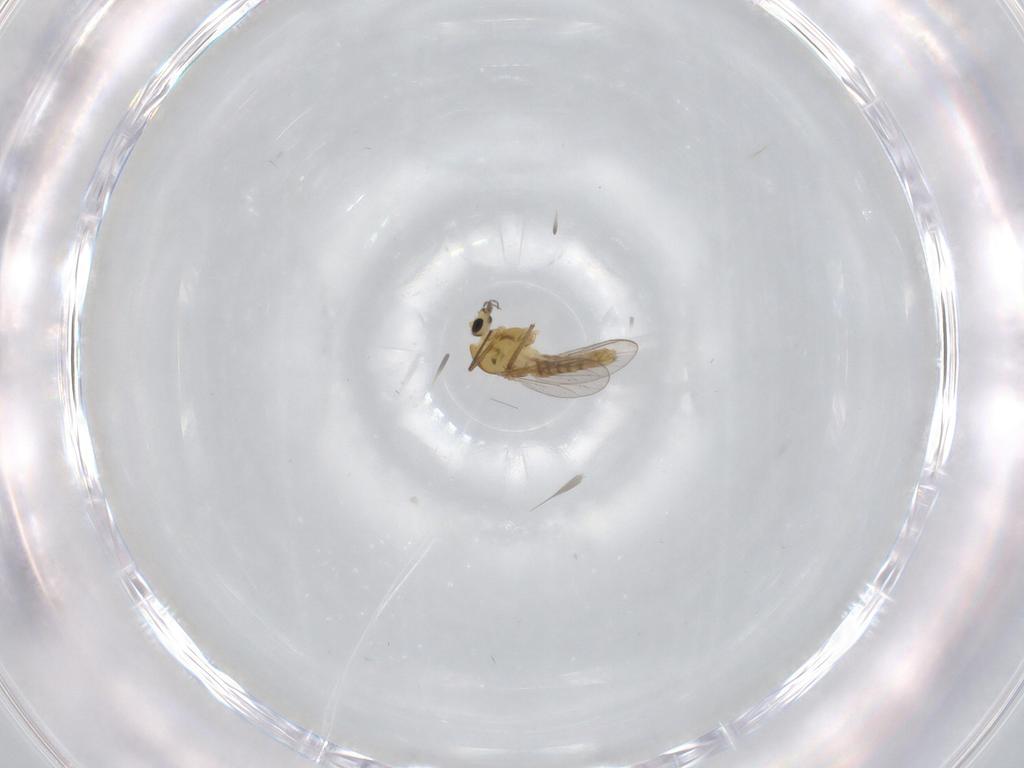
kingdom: Animalia
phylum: Arthropoda
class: Insecta
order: Diptera
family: Chironomidae
